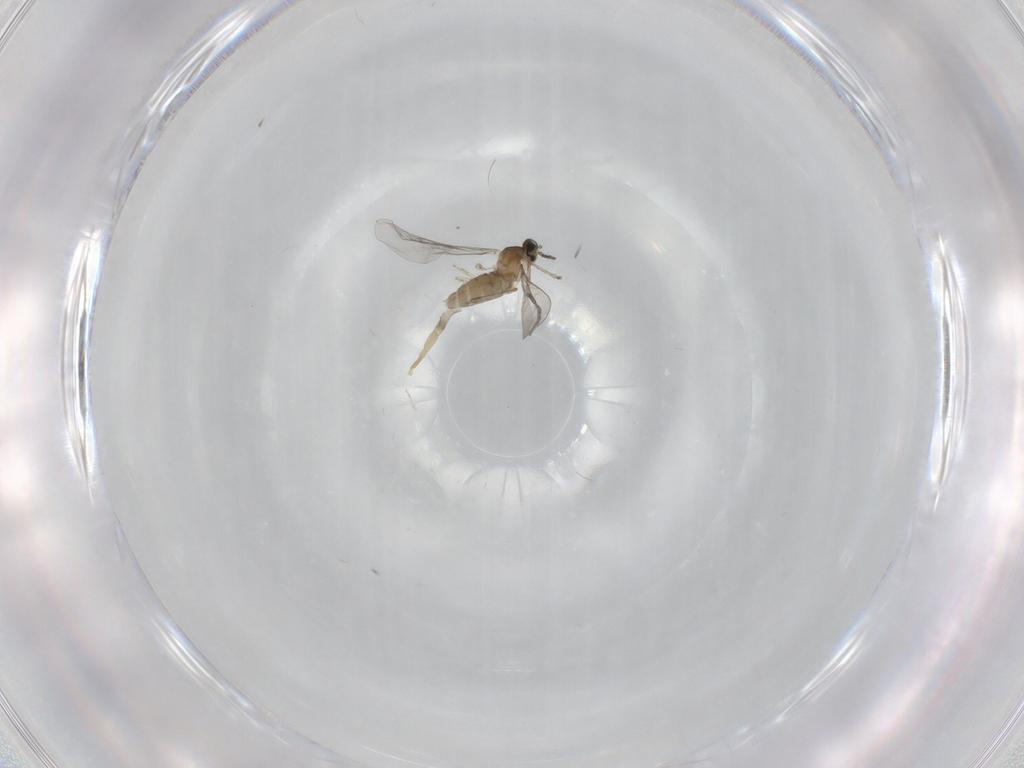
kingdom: Animalia
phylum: Arthropoda
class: Insecta
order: Diptera
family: Cecidomyiidae
